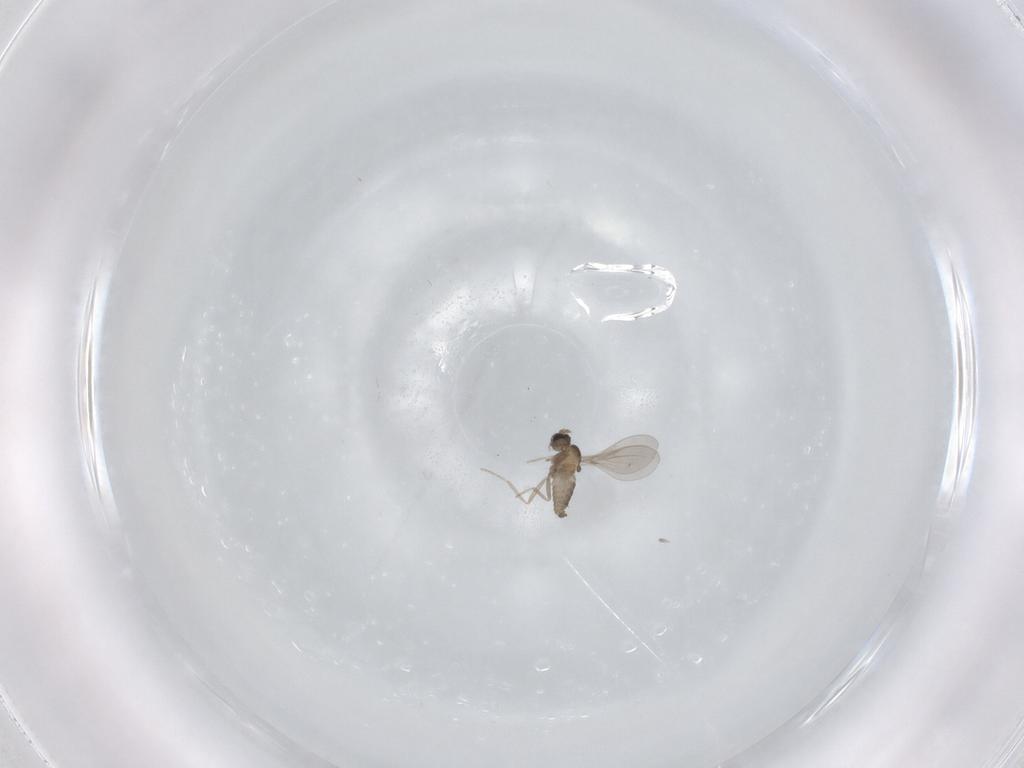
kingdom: Animalia
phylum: Arthropoda
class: Insecta
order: Diptera
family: Cecidomyiidae
